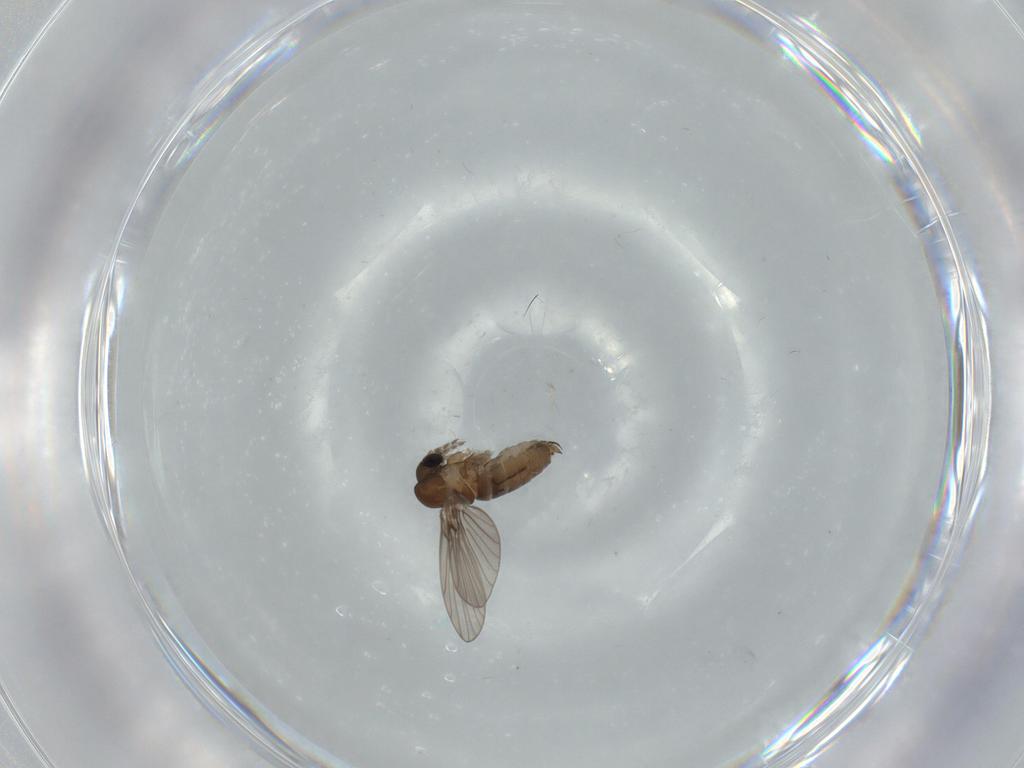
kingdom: Animalia
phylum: Arthropoda
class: Insecta
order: Diptera
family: Psychodidae
